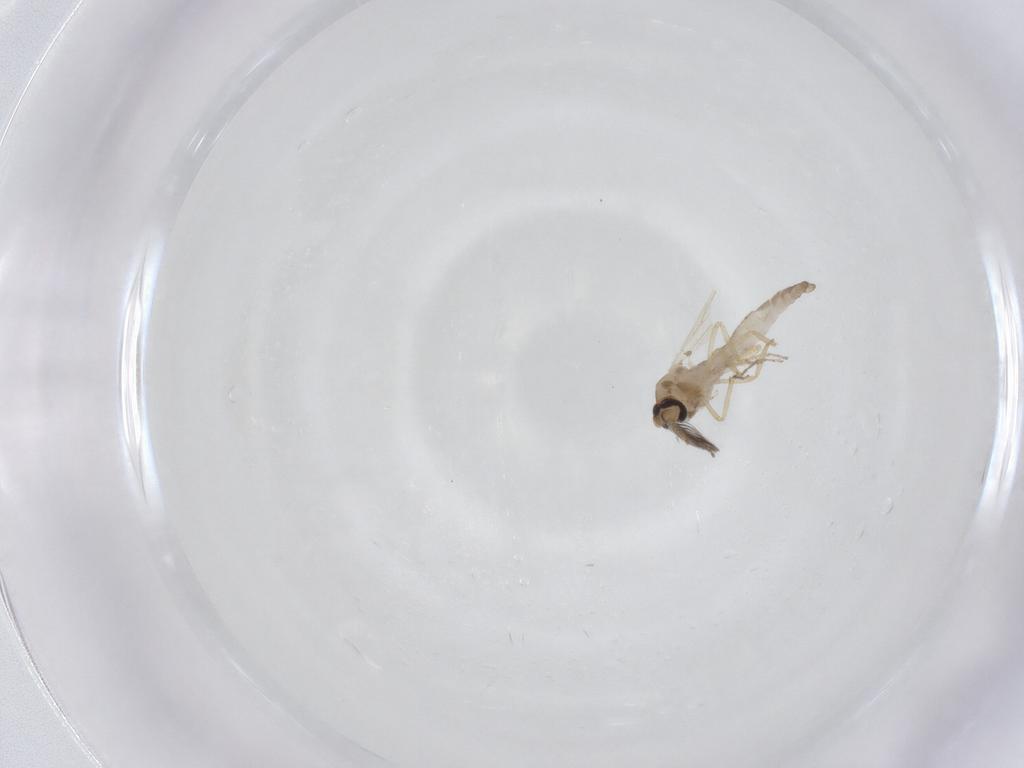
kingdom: Animalia
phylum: Arthropoda
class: Insecta
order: Diptera
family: Ceratopogonidae
